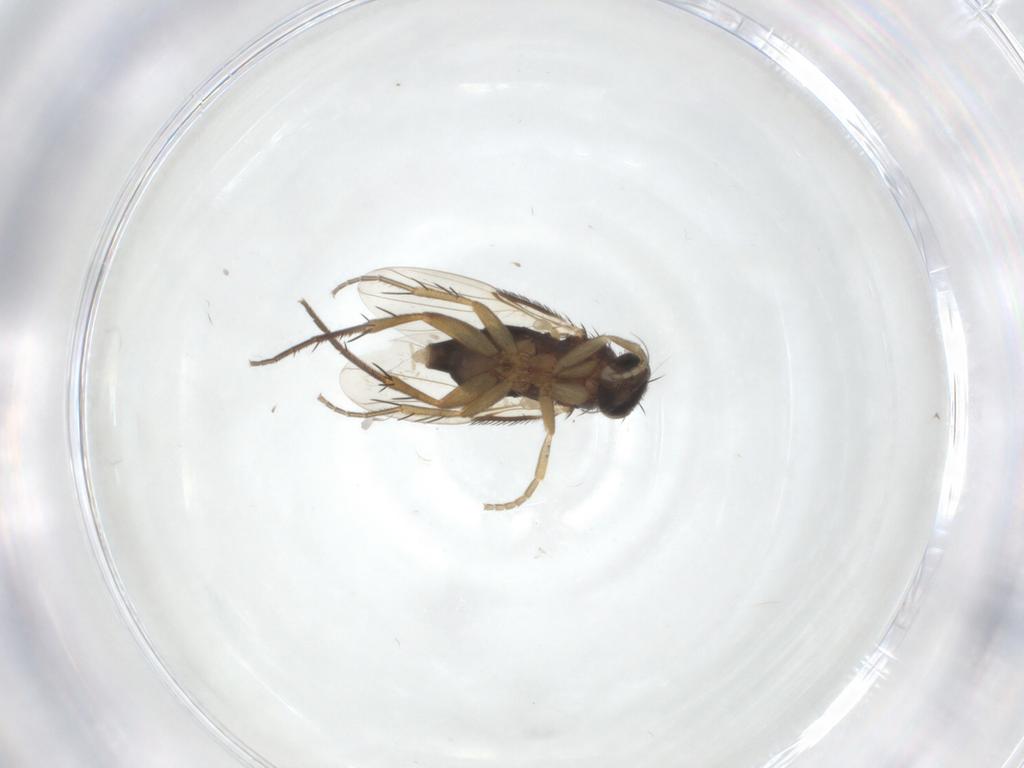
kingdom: Animalia
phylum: Arthropoda
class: Insecta
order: Diptera
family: Phoridae
